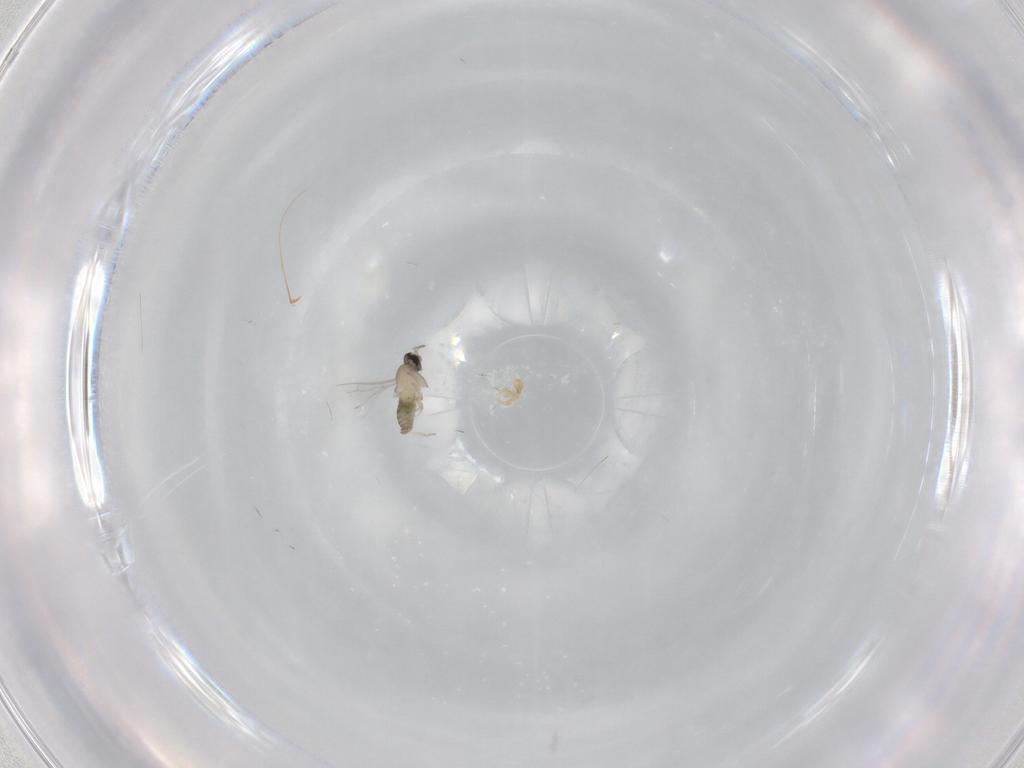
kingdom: Animalia
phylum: Arthropoda
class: Insecta
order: Diptera
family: Cecidomyiidae
